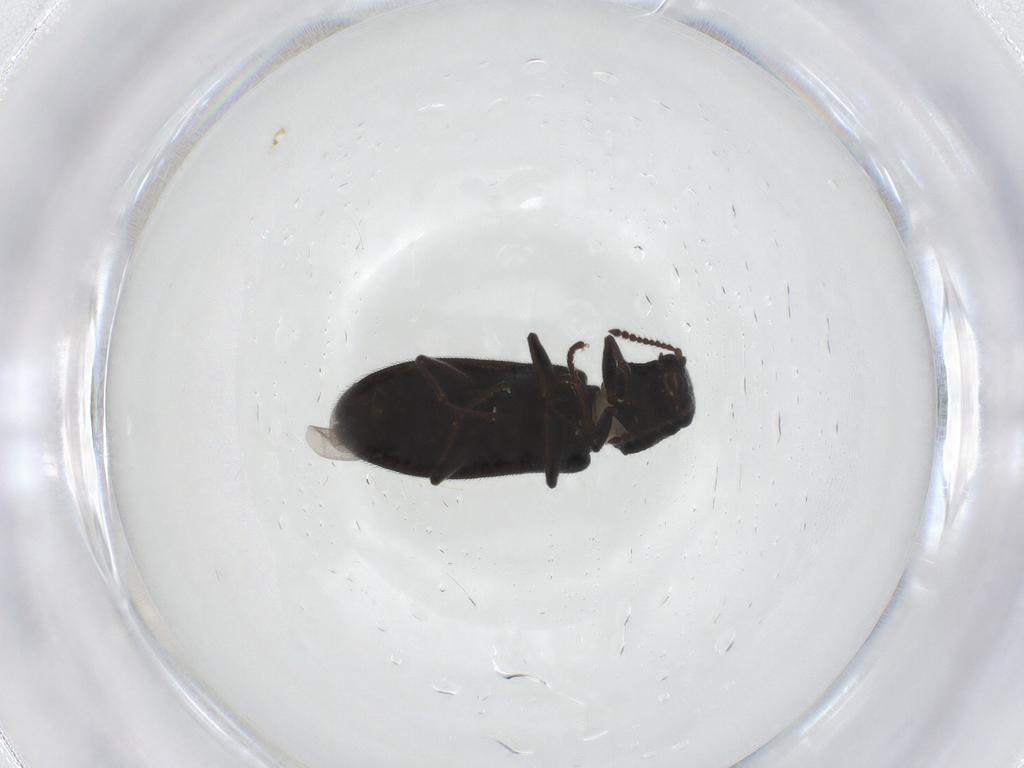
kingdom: Animalia
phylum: Arthropoda
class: Insecta
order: Coleoptera
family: Melyridae
